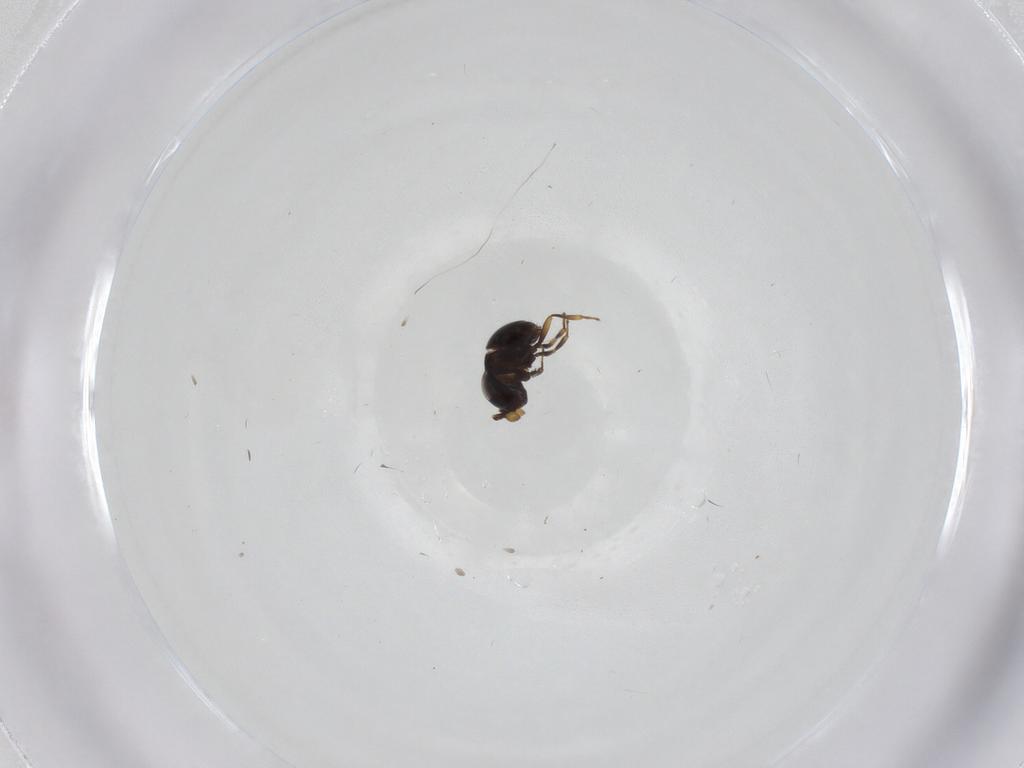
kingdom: Animalia
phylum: Arthropoda
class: Insecta
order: Hymenoptera
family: Scelionidae
